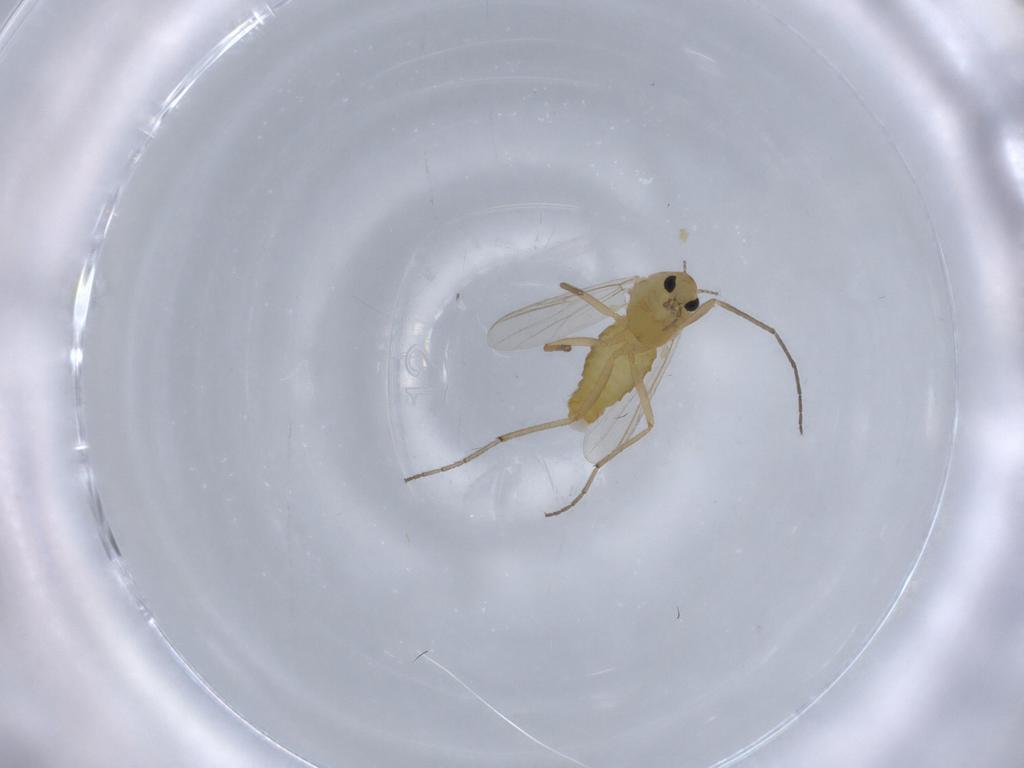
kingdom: Animalia
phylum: Arthropoda
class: Insecta
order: Diptera
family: Chironomidae
